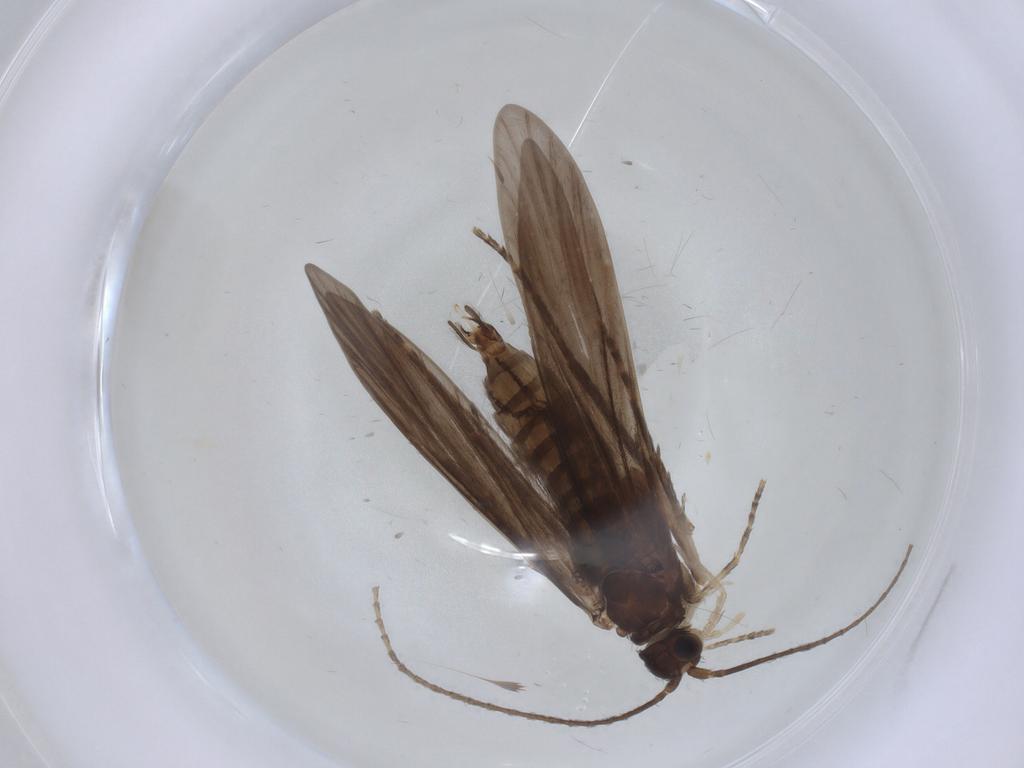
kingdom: Animalia
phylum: Arthropoda
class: Insecta
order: Trichoptera
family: Xiphocentronidae
